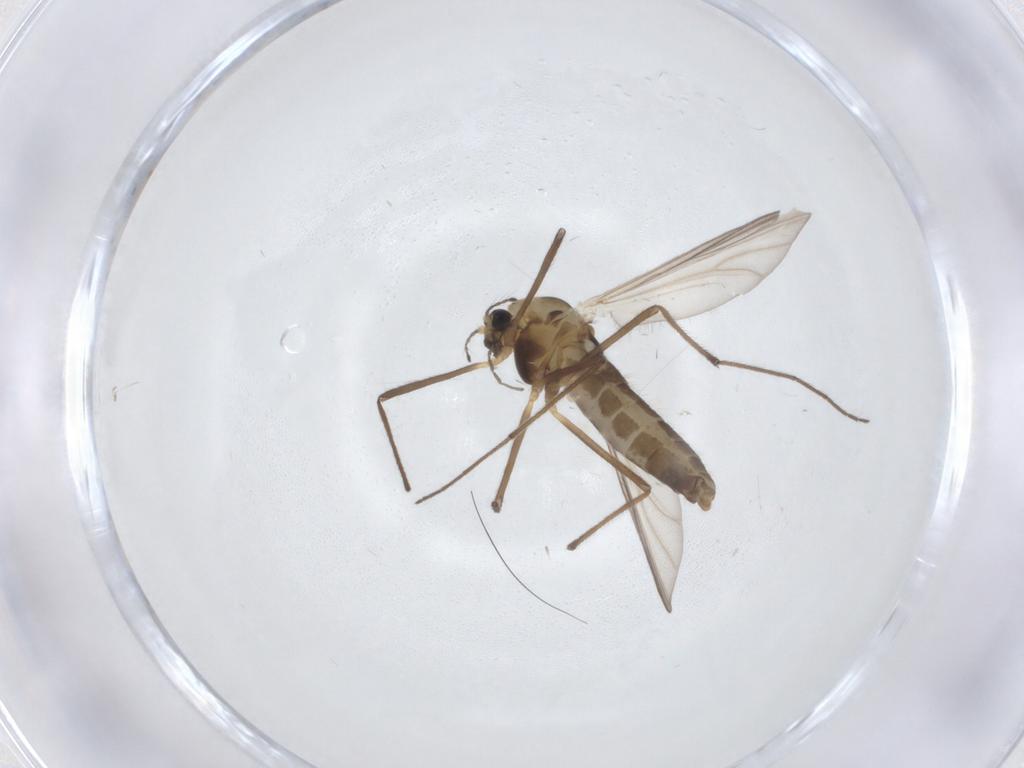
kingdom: Animalia
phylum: Arthropoda
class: Insecta
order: Diptera
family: Chironomidae
